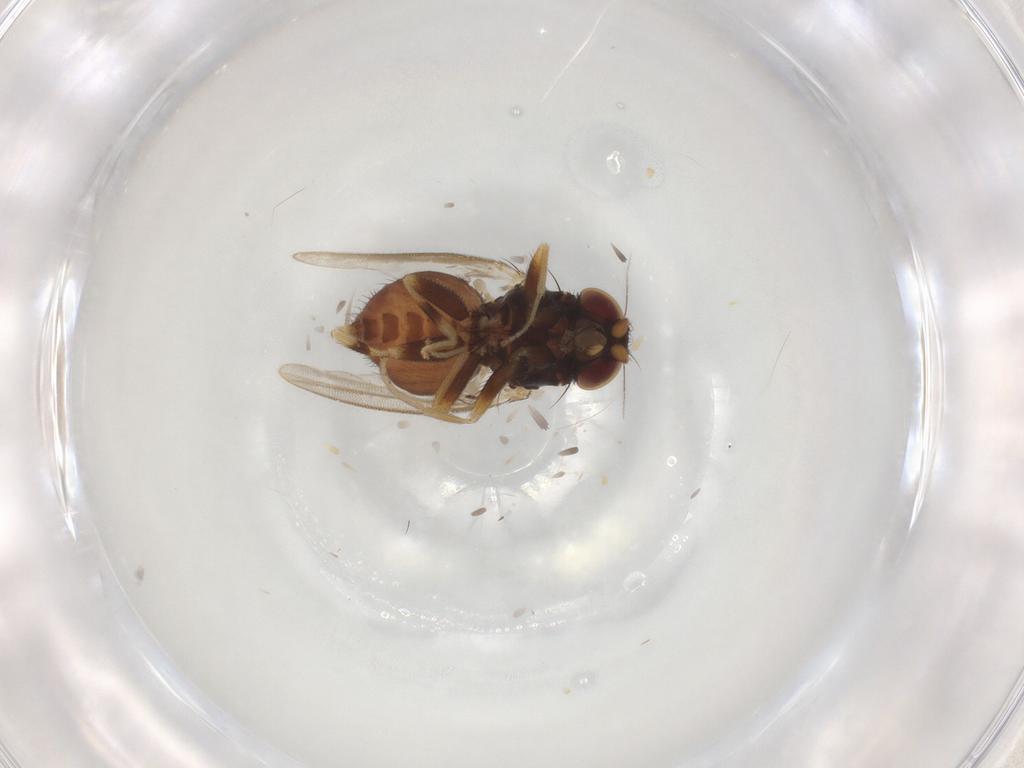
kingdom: Animalia
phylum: Arthropoda
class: Insecta
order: Diptera
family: Milichiidae
